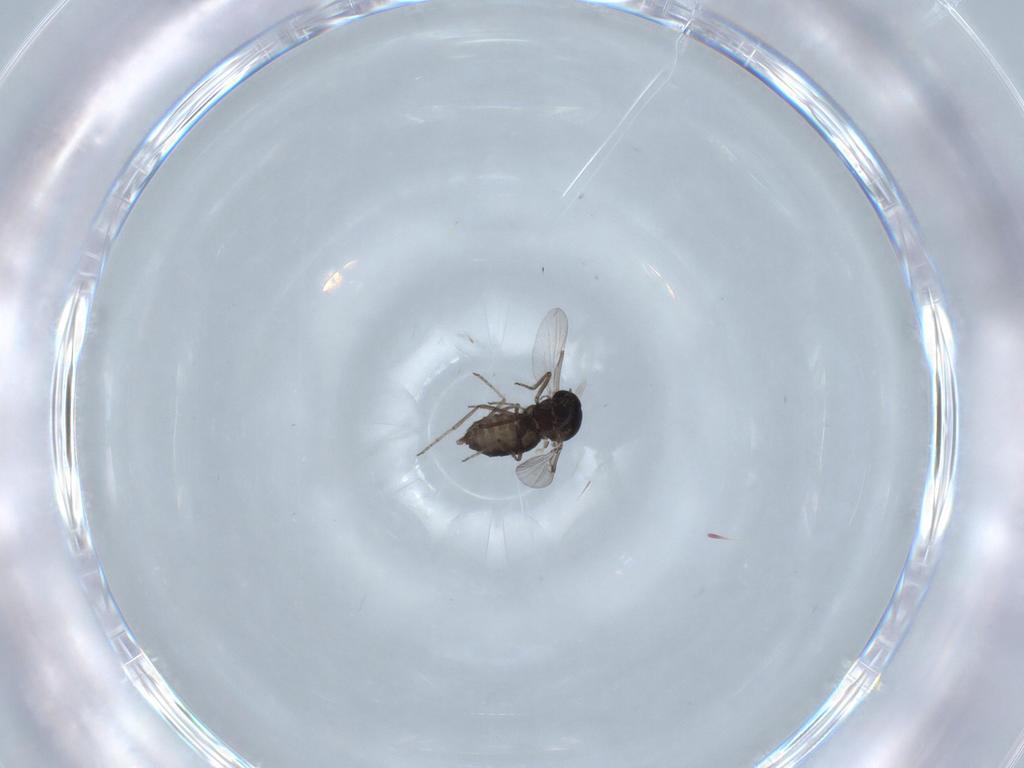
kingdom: Animalia
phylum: Arthropoda
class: Insecta
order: Diptera
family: Ceratopogonidae
